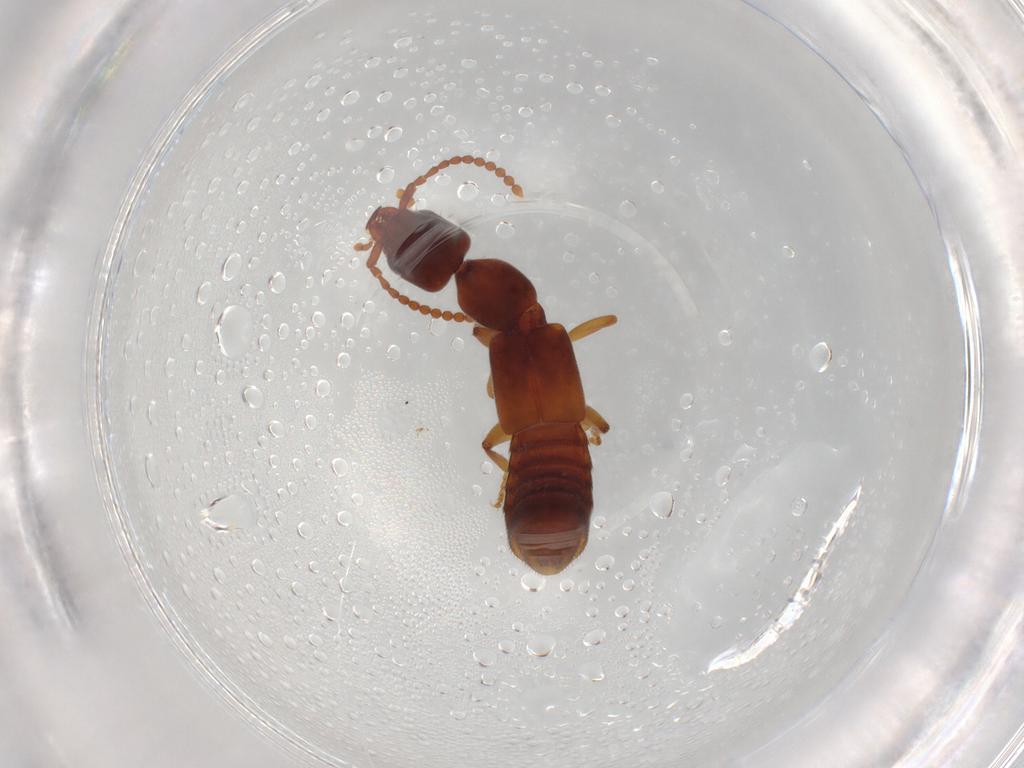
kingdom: Animalia
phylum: Arthropoda
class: Insecta
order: Coleoptera
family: Staphylinidae
